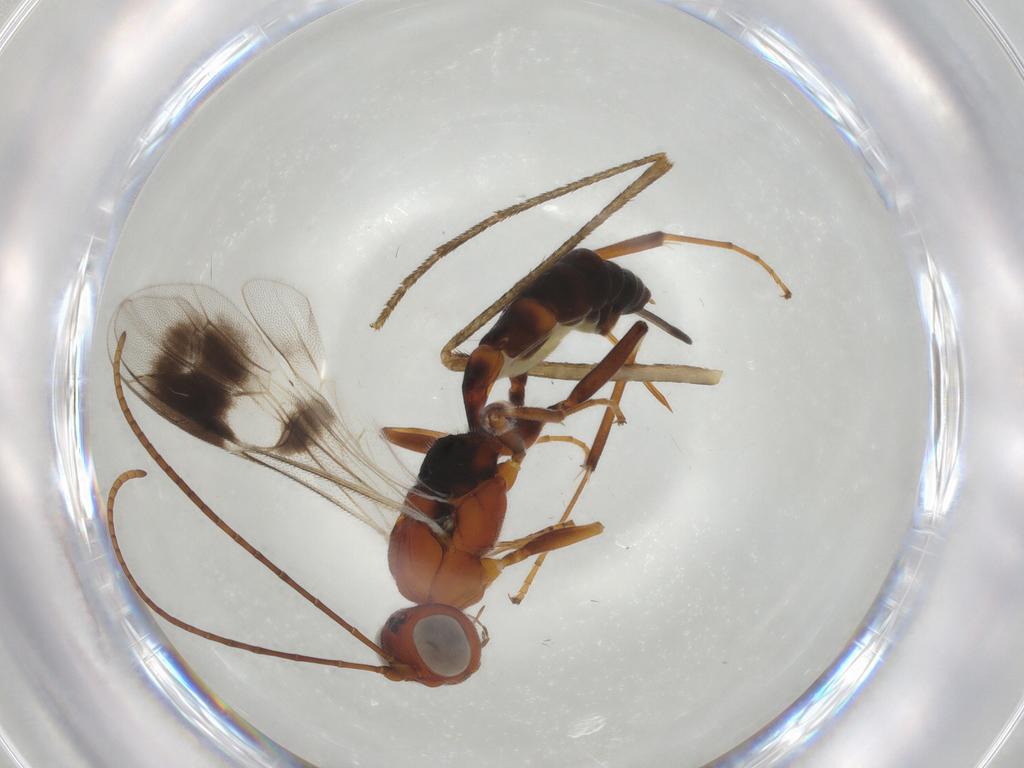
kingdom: Animalia
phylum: Arthropoda
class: Insecta
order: Hymenoptera
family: Ichneumonidae
